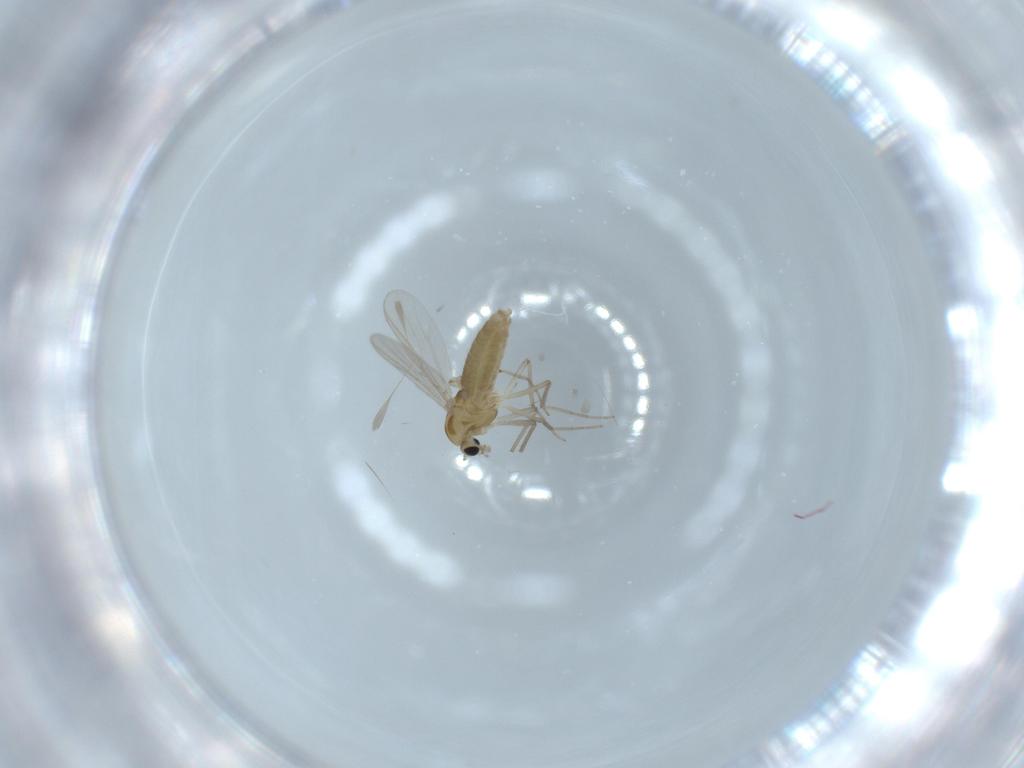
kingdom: Animalia
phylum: Arthropoda
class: Insecta
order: Diptera
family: Chironomidae
